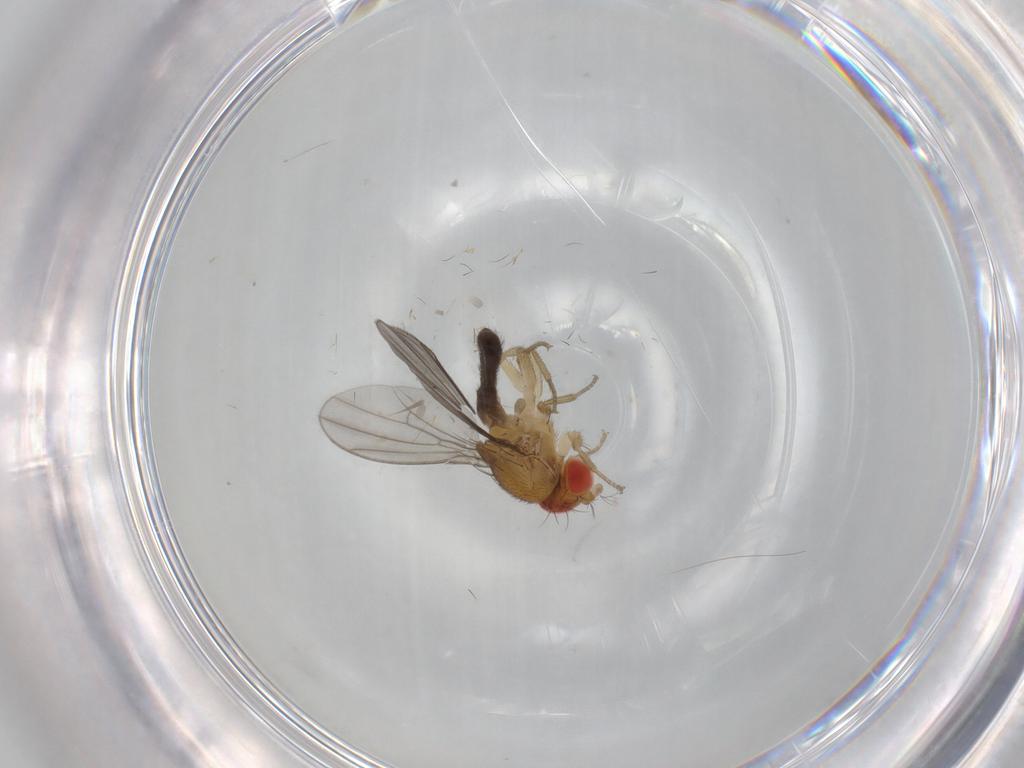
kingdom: Animalia
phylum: Arthropoda
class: Insecta
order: Diptera
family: Drosophilidae
